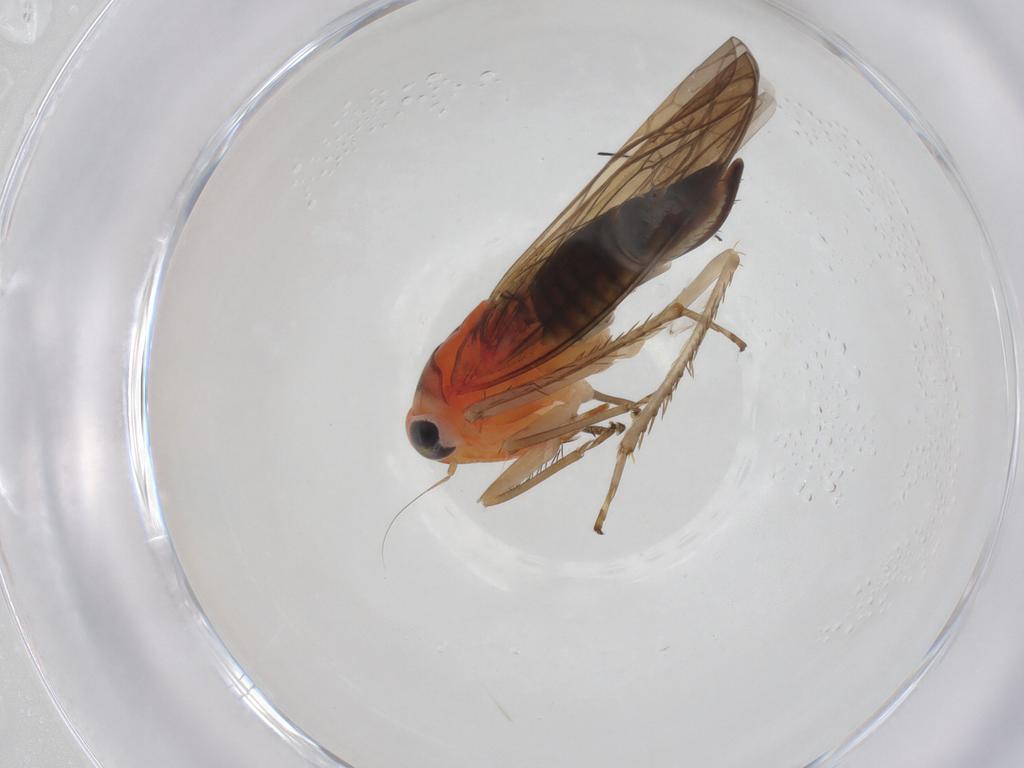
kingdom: Animalia
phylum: Arthropoda
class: Insecta
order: Hemiptera
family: Cicadellidae
